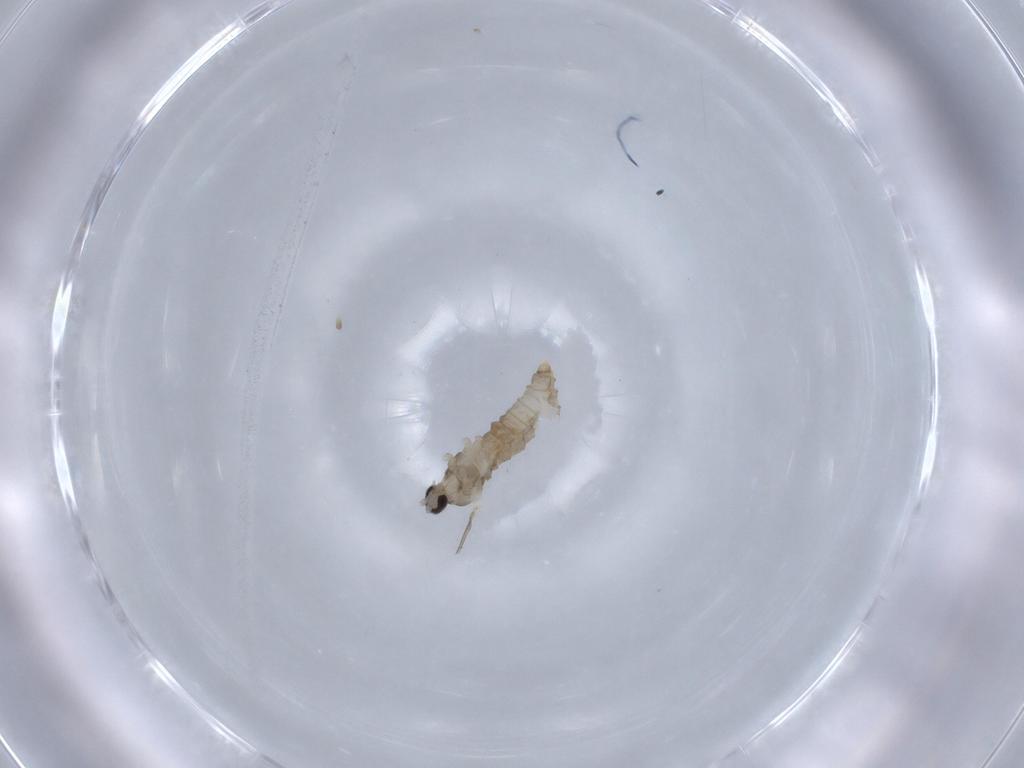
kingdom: Animalia
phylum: Arthropoda
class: Insecta
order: Diptera
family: Cecidomyiidae
